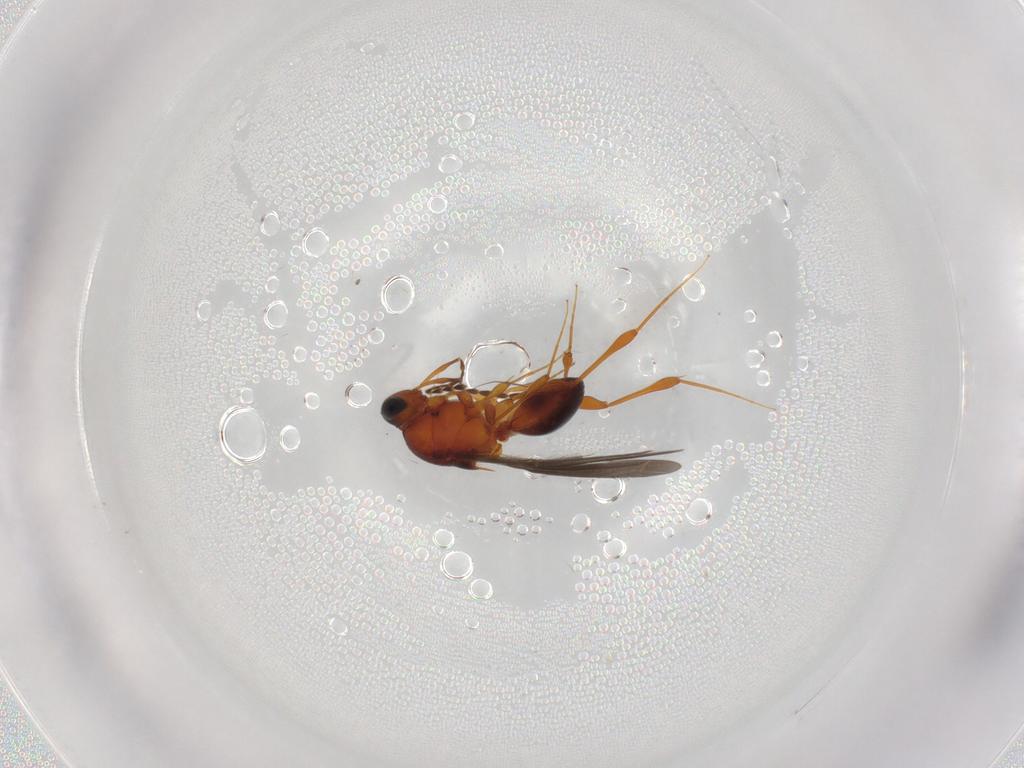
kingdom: Animalia
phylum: Arthropoda
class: Insecta
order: Hymenoptera
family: Platygastridae
